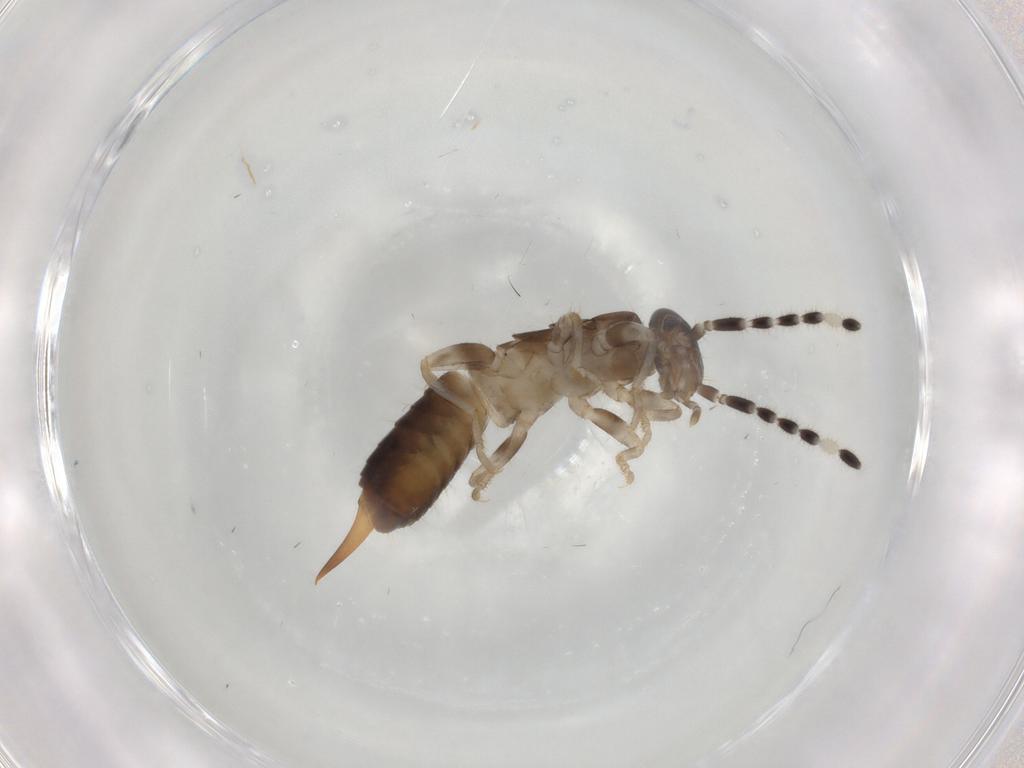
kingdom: Animalia
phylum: Arthropoda
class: Insecta
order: Dermaptera
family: Anisolabididae
